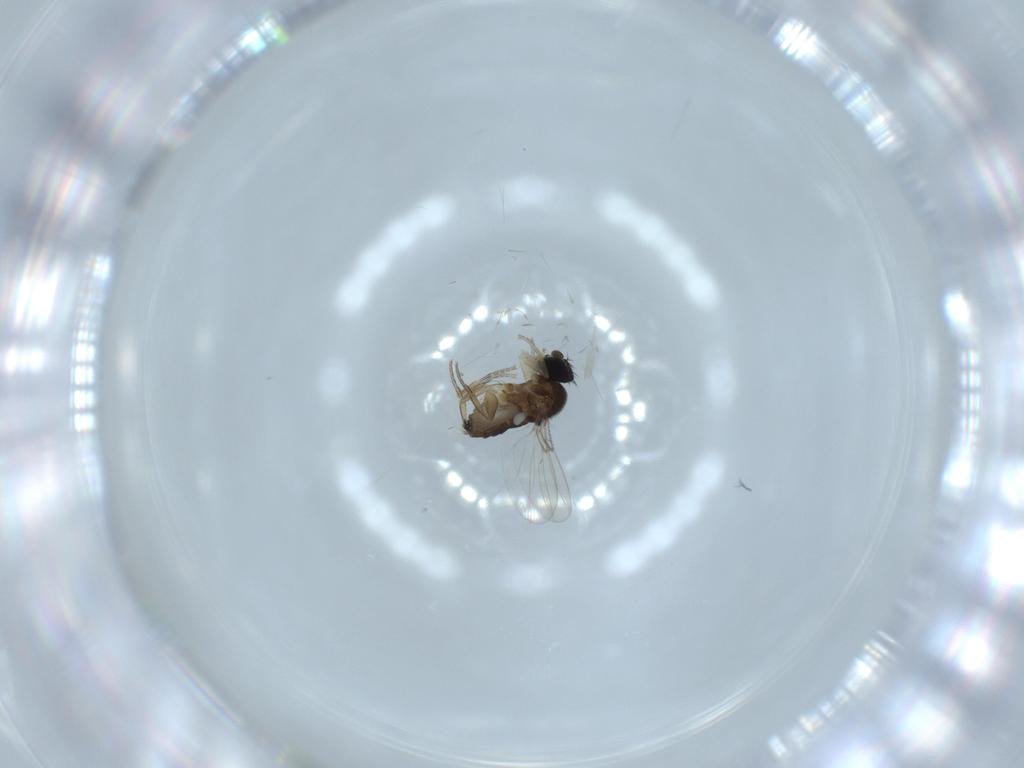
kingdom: Animalia
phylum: Arthropoda
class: Insecta
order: Diptera
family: Phoridae
